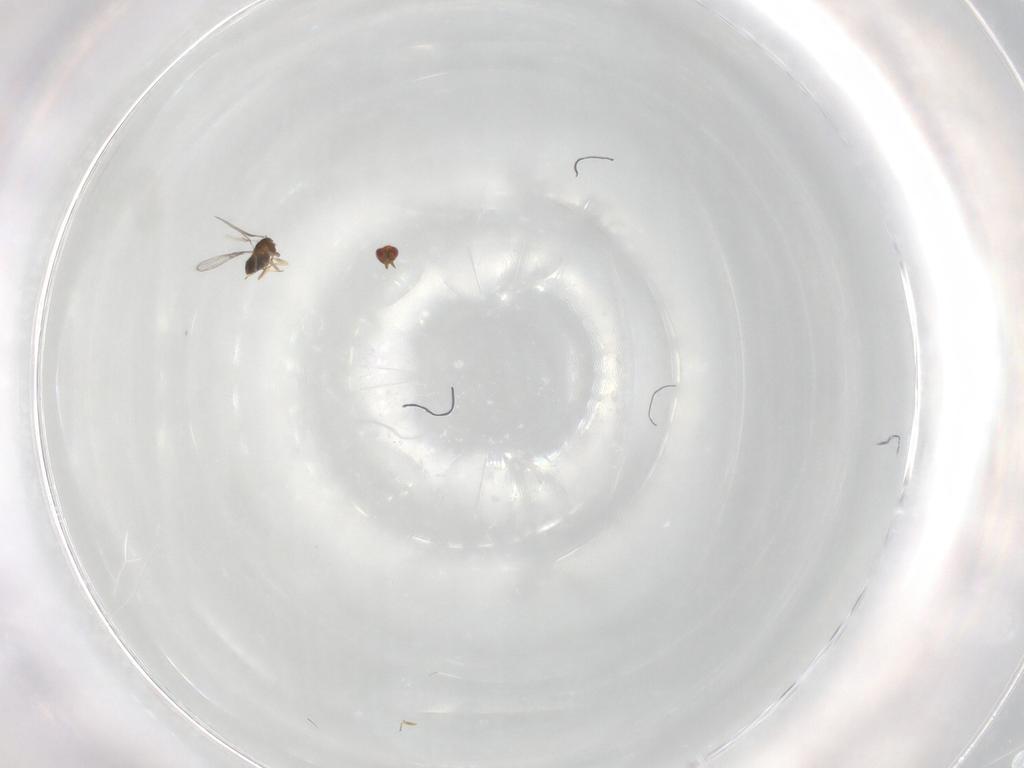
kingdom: Animalia
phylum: Arthropoda
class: Insecta
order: Hymenoptera
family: Trichogrammatidae
